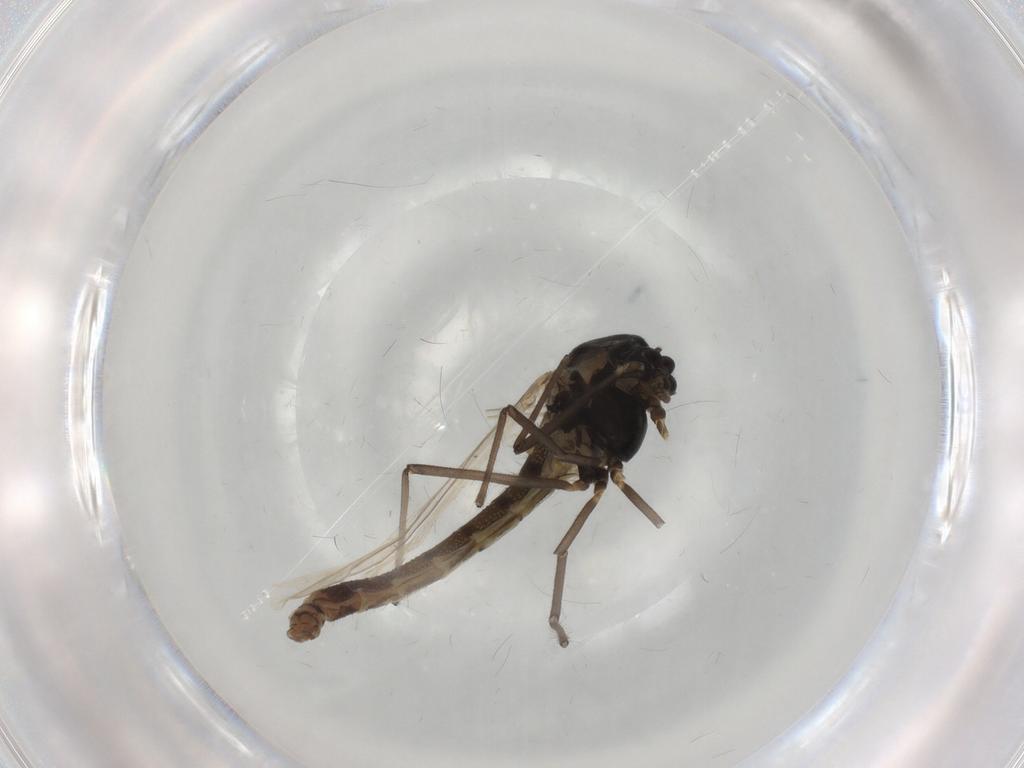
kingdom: Animalia
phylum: Arthropoda
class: Insecta
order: Diptera
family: Chironomidae
